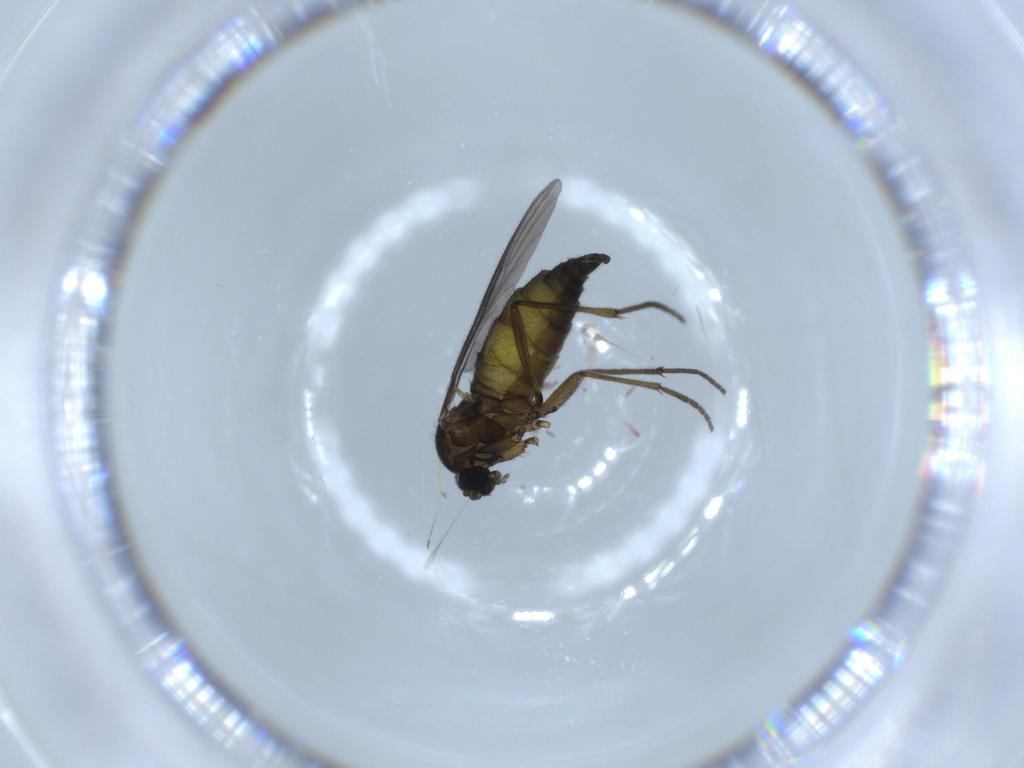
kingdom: Animalia
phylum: Arthropoda
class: Insecta
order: Diptera
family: Sciaridae
